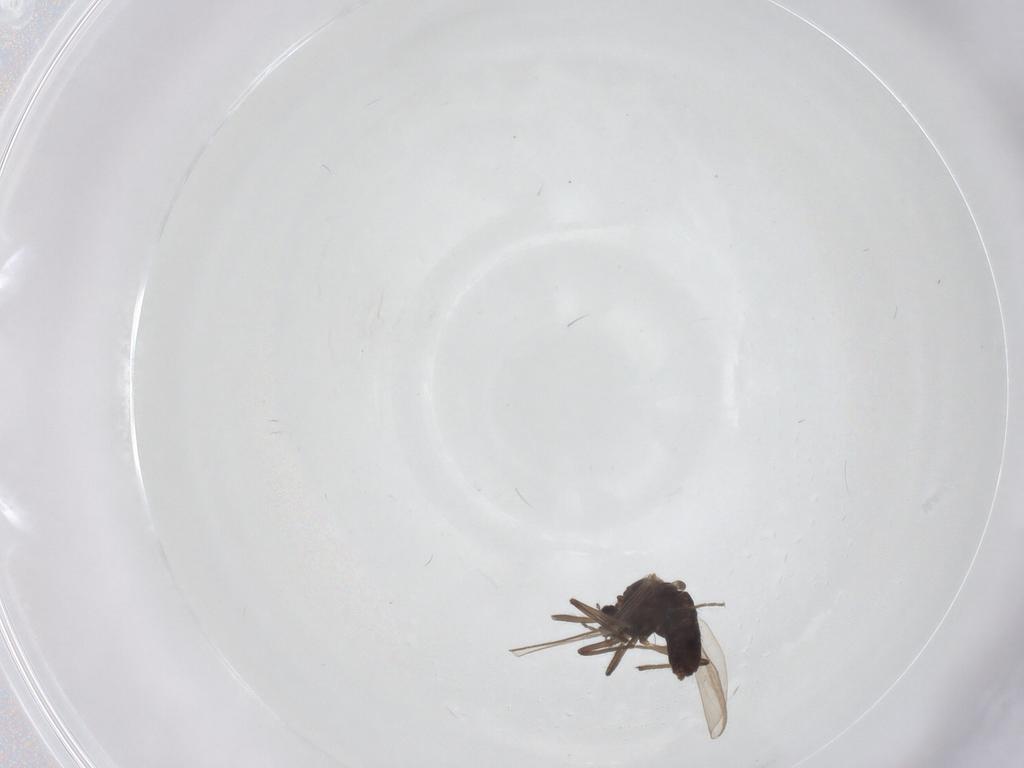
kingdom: Animalia
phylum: Arthropoda
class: Insecta
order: Diptera
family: Chironomidae
